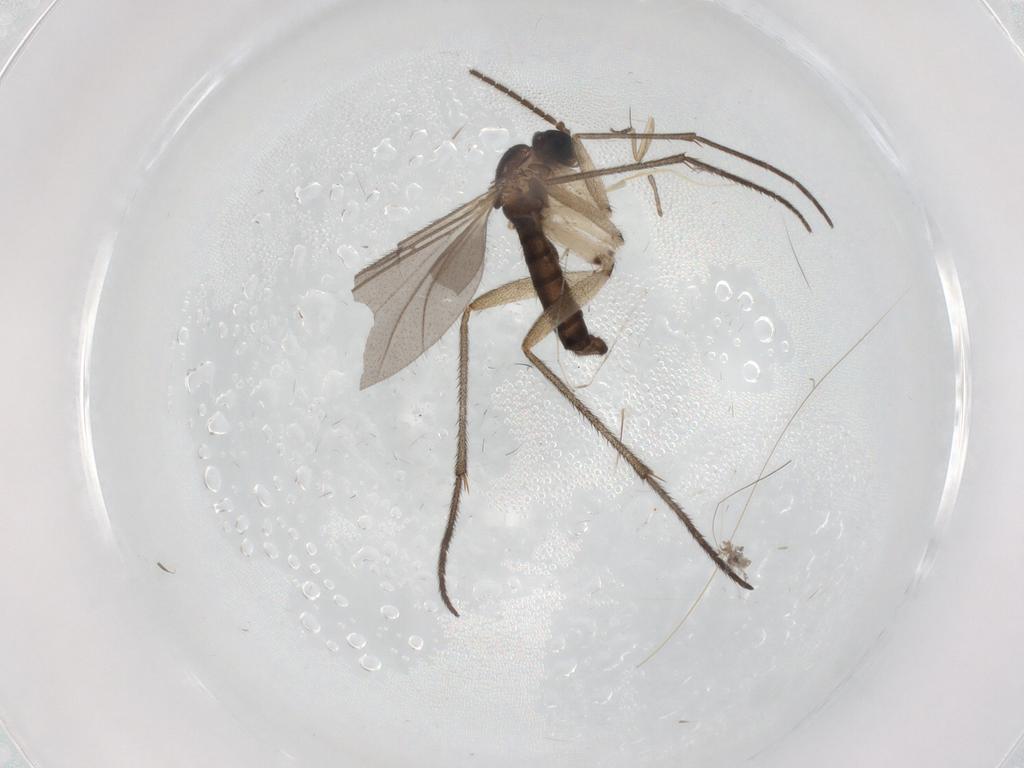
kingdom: Animalia
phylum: Arthropoda
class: Insecta
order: Diptera
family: Sciaridae
